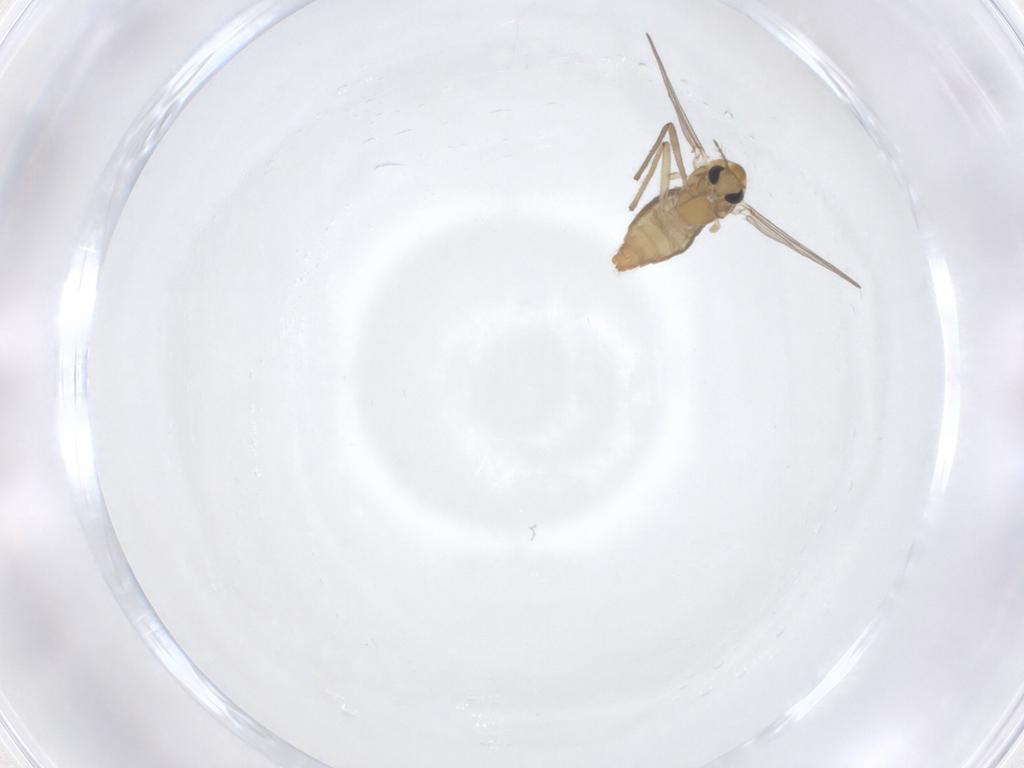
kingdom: Animalia
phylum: Arthropoda
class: Insecta
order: Diptera
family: Chironomidae
